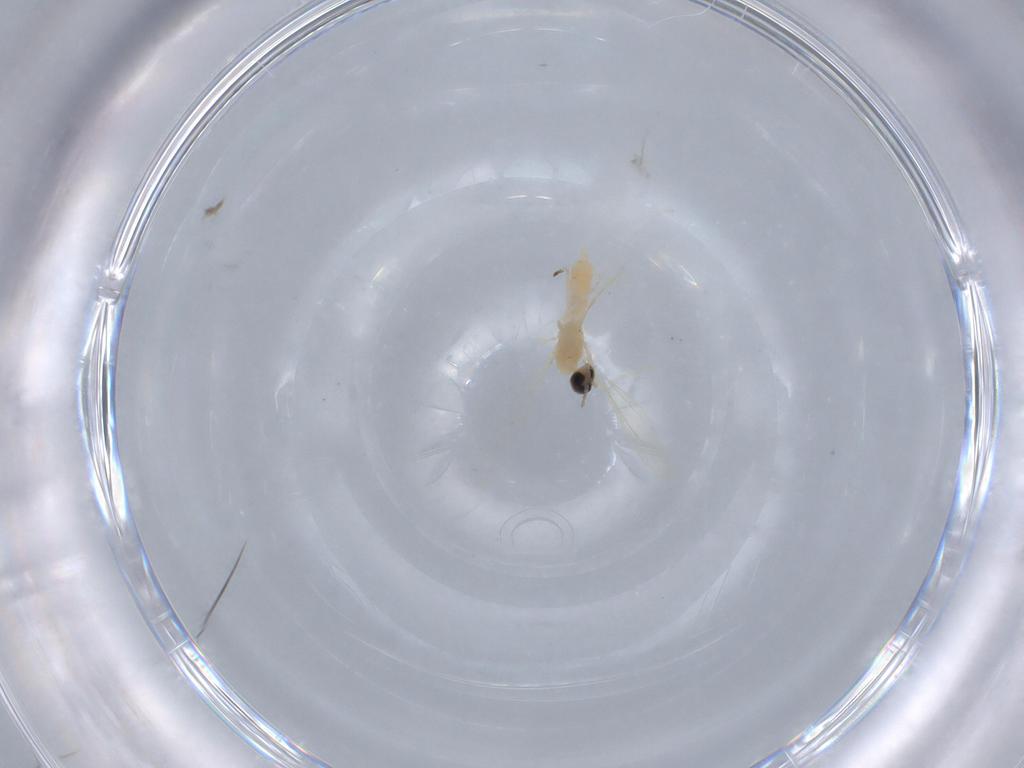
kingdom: Animalia
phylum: Arthropoda
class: Insecta
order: Diptera
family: Cecidomyiidae
